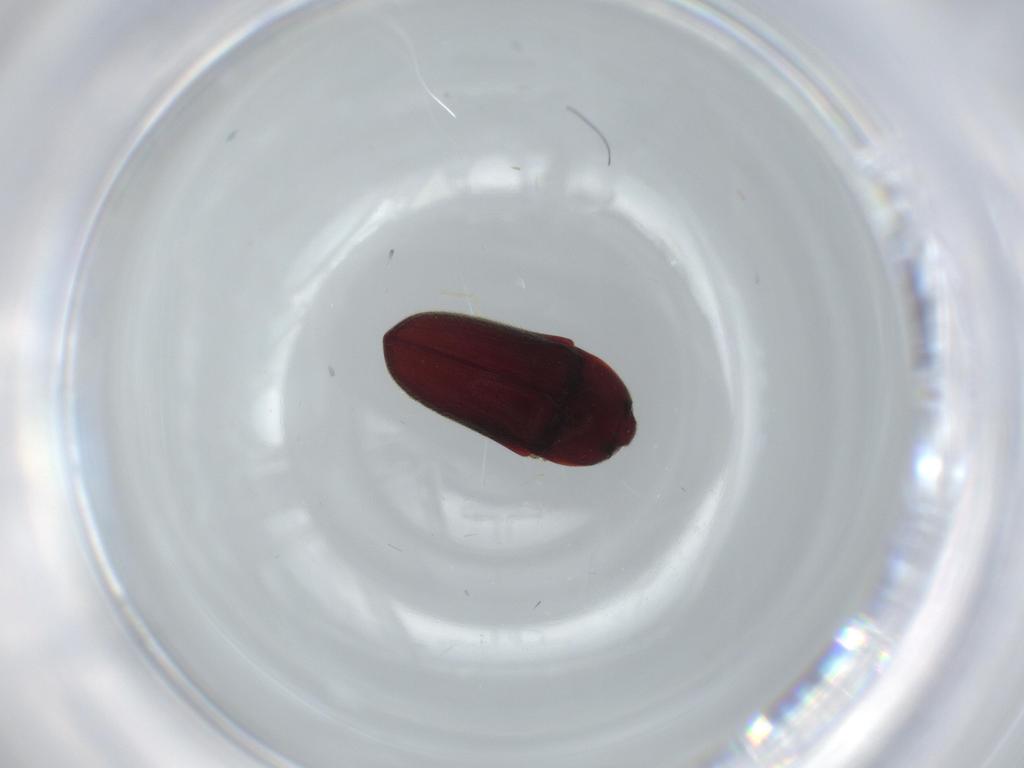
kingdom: Animalia
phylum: Arthropoda
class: Insecta
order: Coleoptera
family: Throscidae
